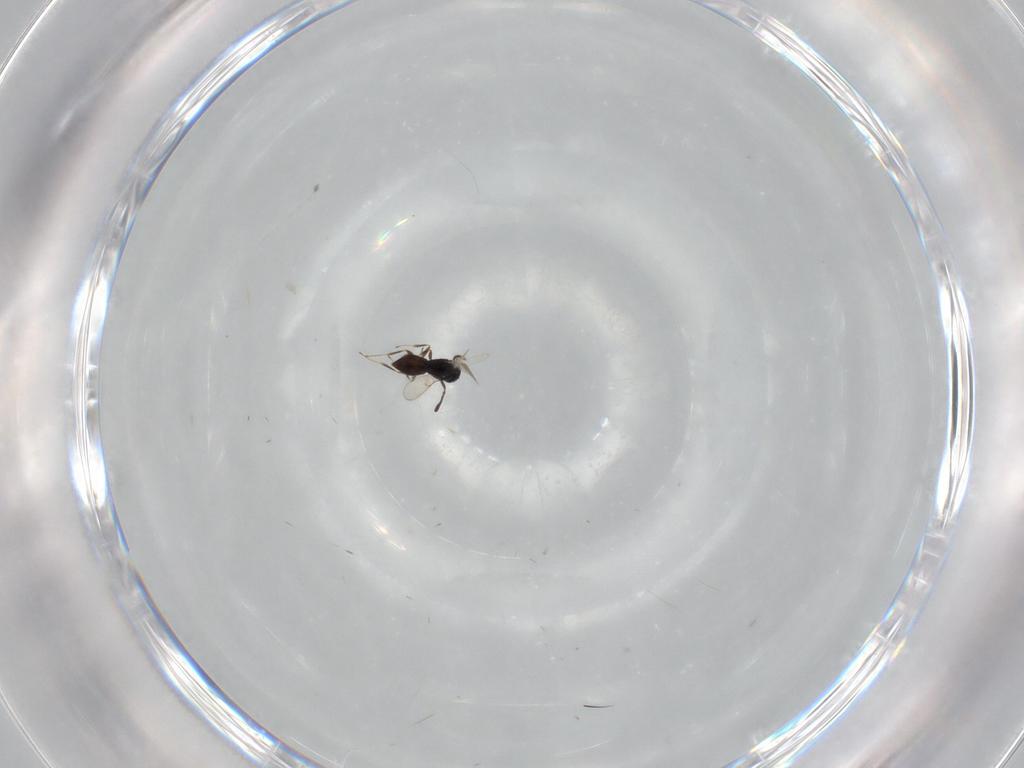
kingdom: Animalia
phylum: Arthropoda
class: Insecta
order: Hymenoptera
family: Scelionidae
